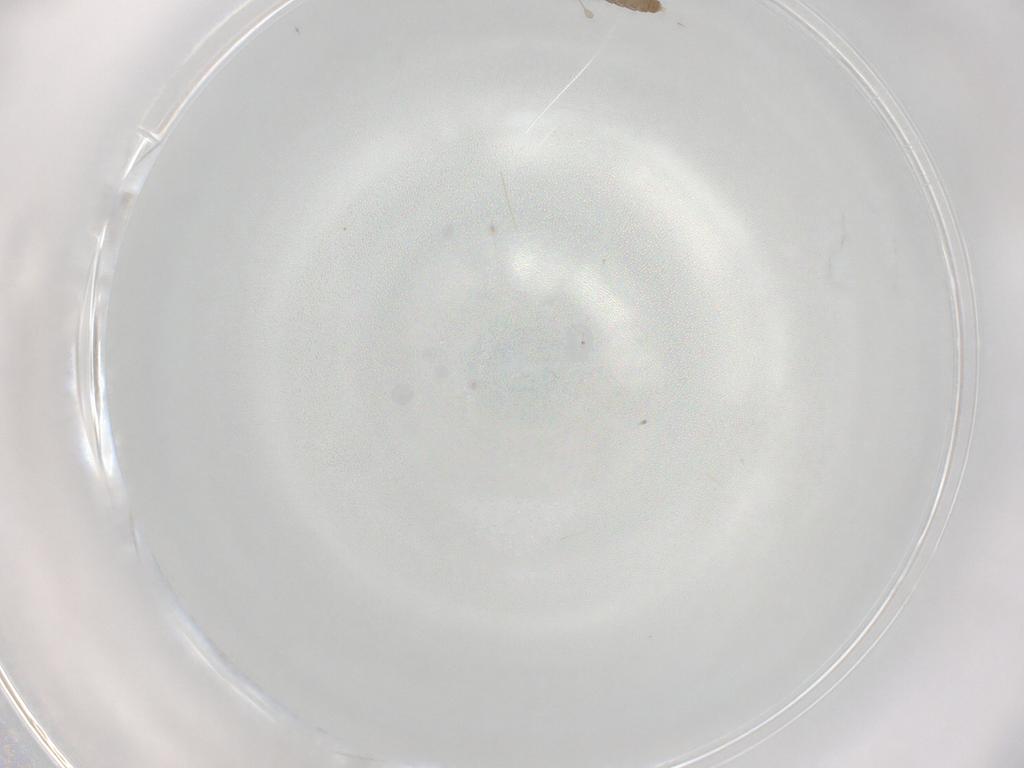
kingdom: Animalia
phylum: Arthropoda
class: Insecta
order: Diptera
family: Cecidomyiidae
